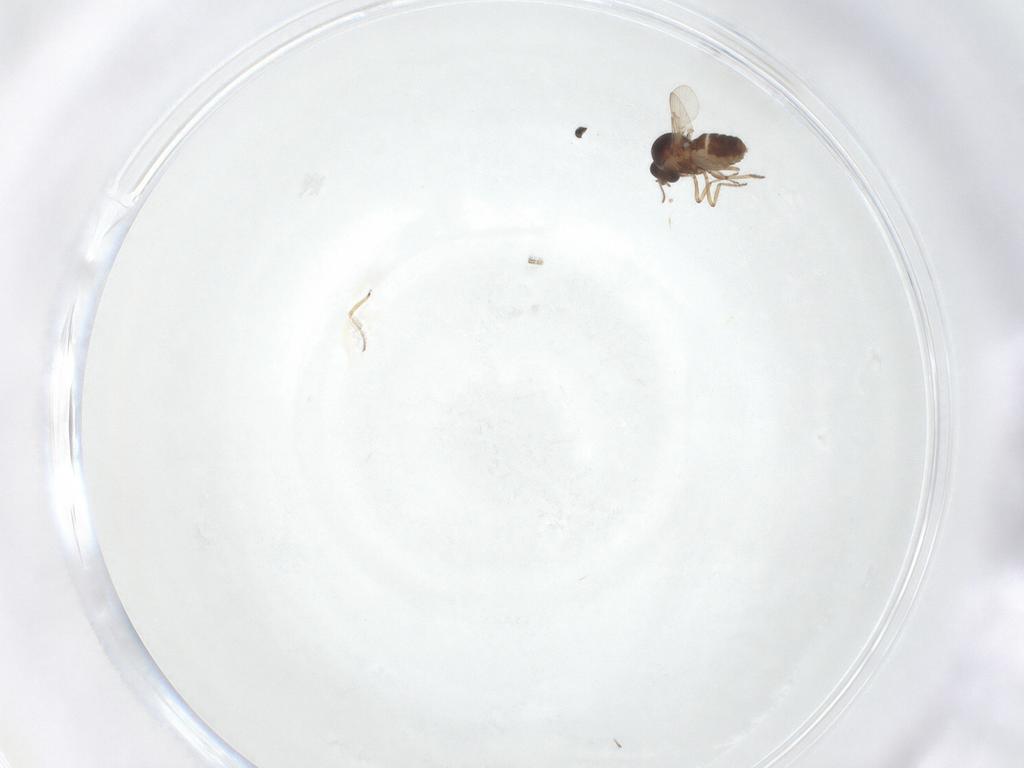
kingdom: Animalia
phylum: Arthropoda
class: Insecta
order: Diptera
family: Cecidomyiidae
